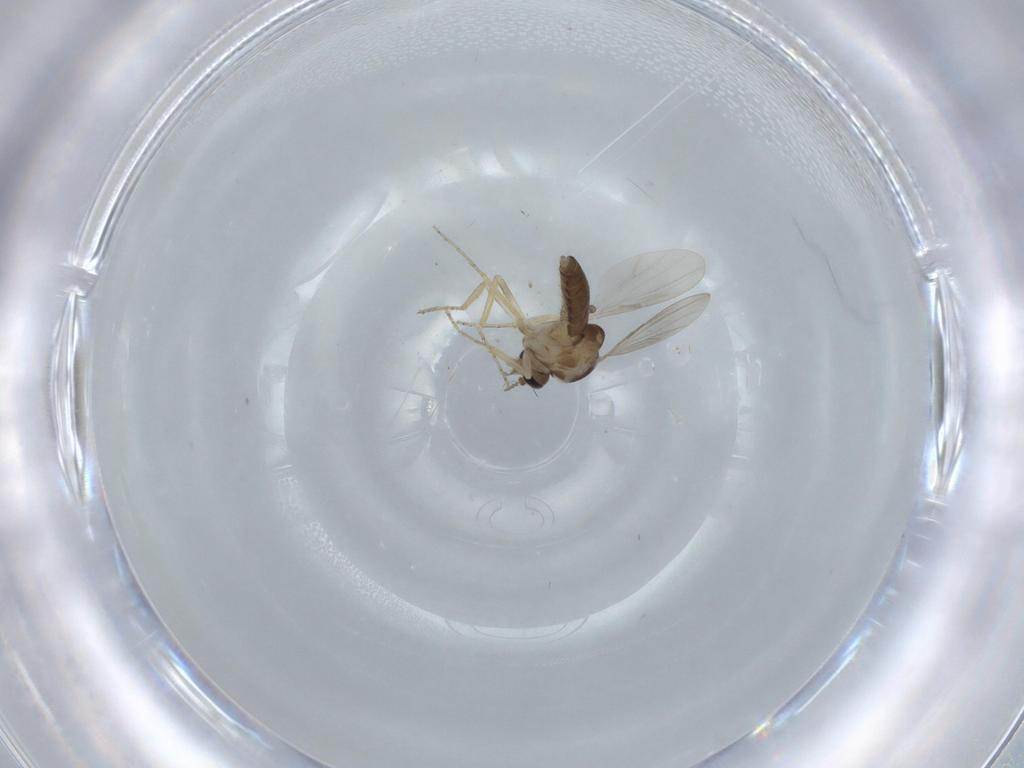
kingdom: Animalia
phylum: Arthropoda
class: Insecta
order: Diptera
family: Ceratopogonidae
